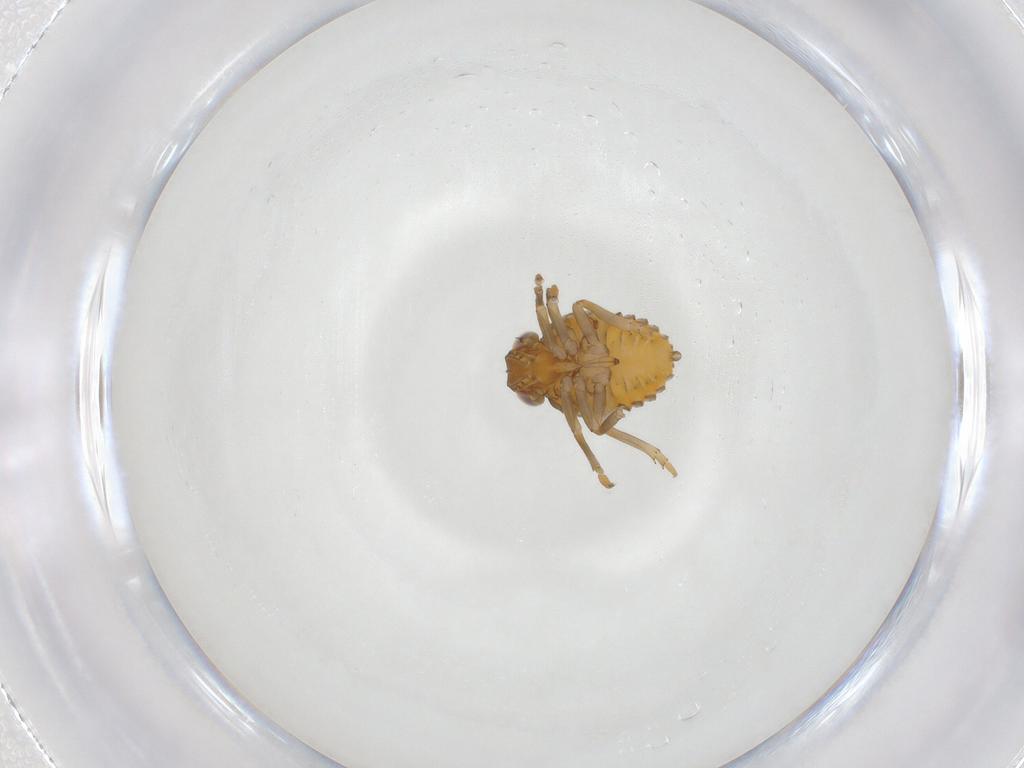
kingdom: Animalia
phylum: Arthropoda
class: Insecta
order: Hemiptera
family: Issidae
